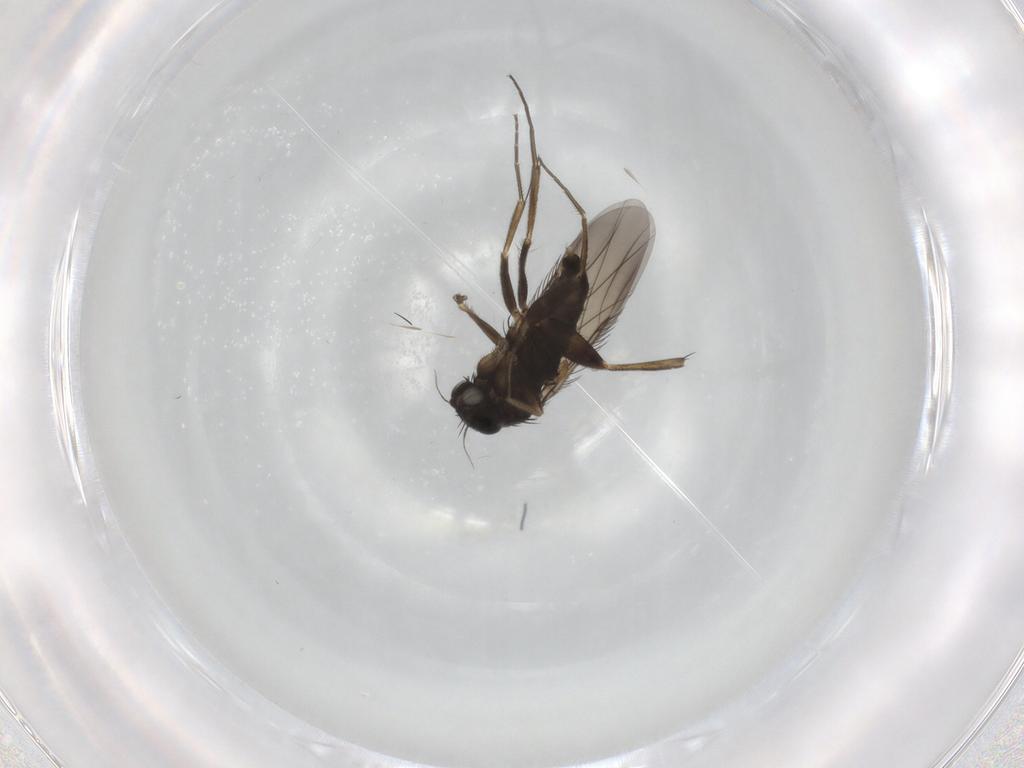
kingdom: Animalia
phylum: Arthropoda
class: Insecta
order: Diptera
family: Phoridae
